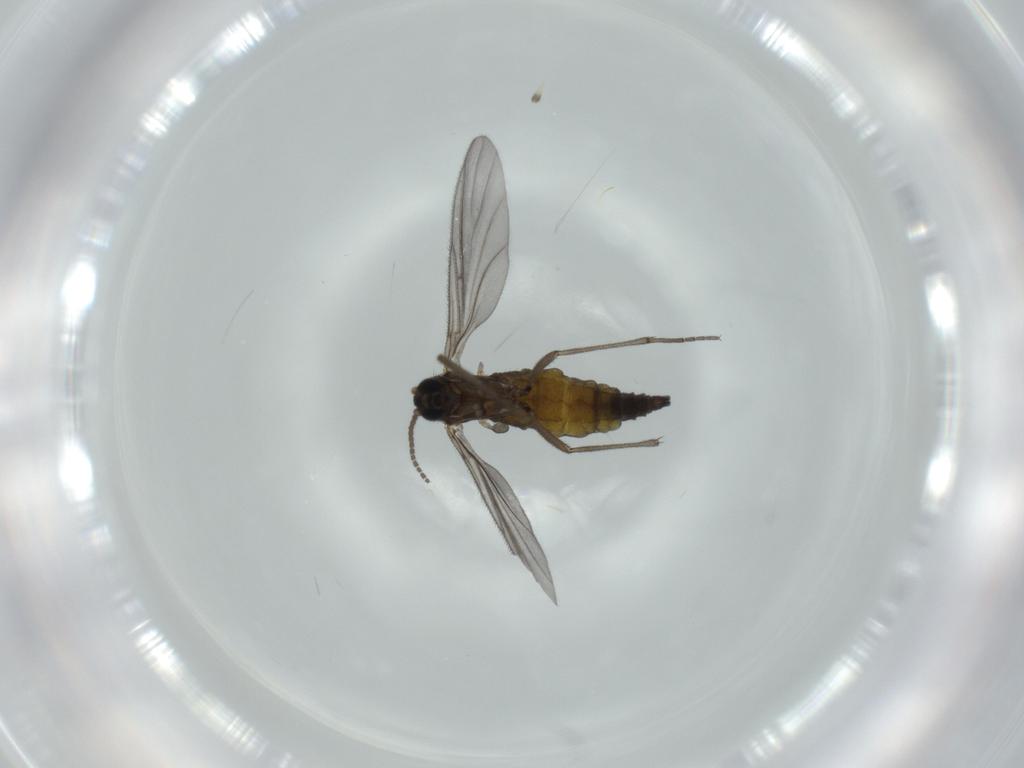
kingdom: Animalia
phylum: Arthropoda
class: Insecta
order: Diptera
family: Sciaridae
